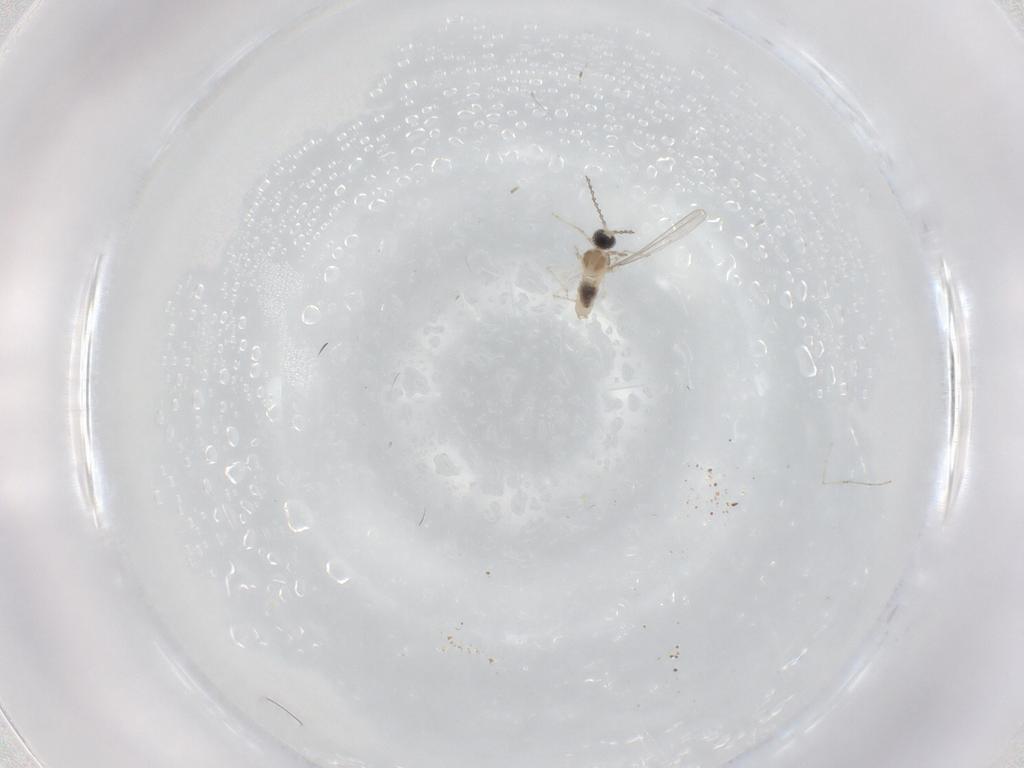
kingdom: Animalia
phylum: Arthropoda
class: Insecta
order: Diptera
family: Cecidomyiidae
